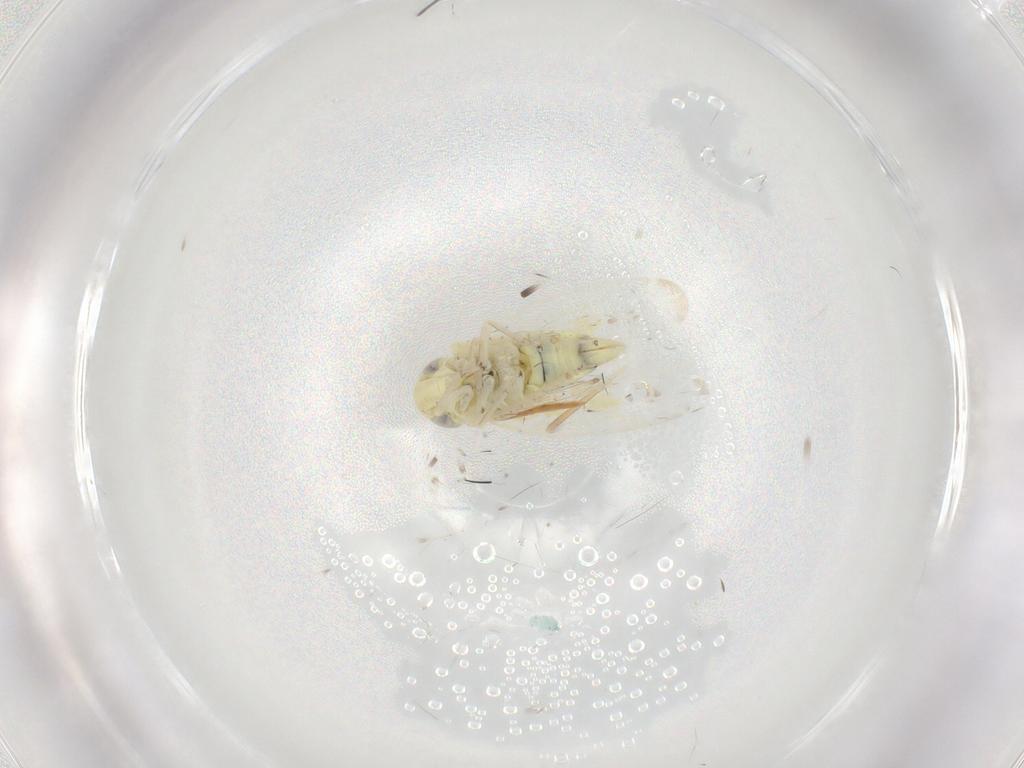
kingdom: Animalia
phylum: Arthropoda
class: Insecta
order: Hemiptera
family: Cicadellidae
